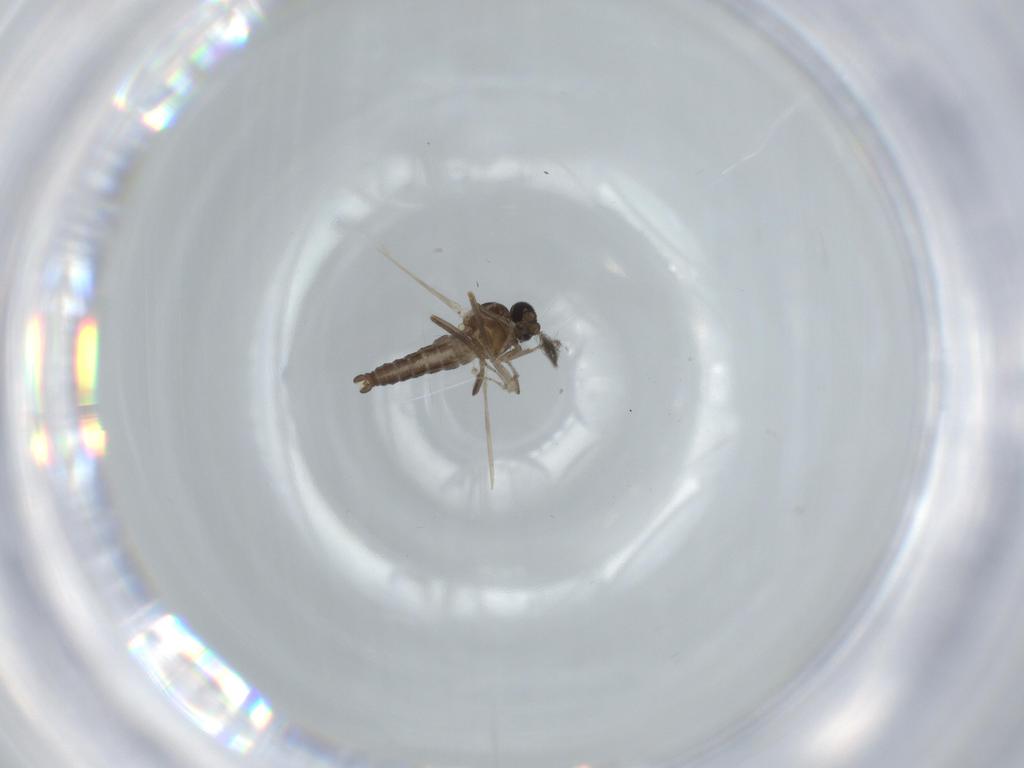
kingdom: Animalia
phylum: Arthropoda
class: Insecta
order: Diptera
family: Ceratopogonidae
